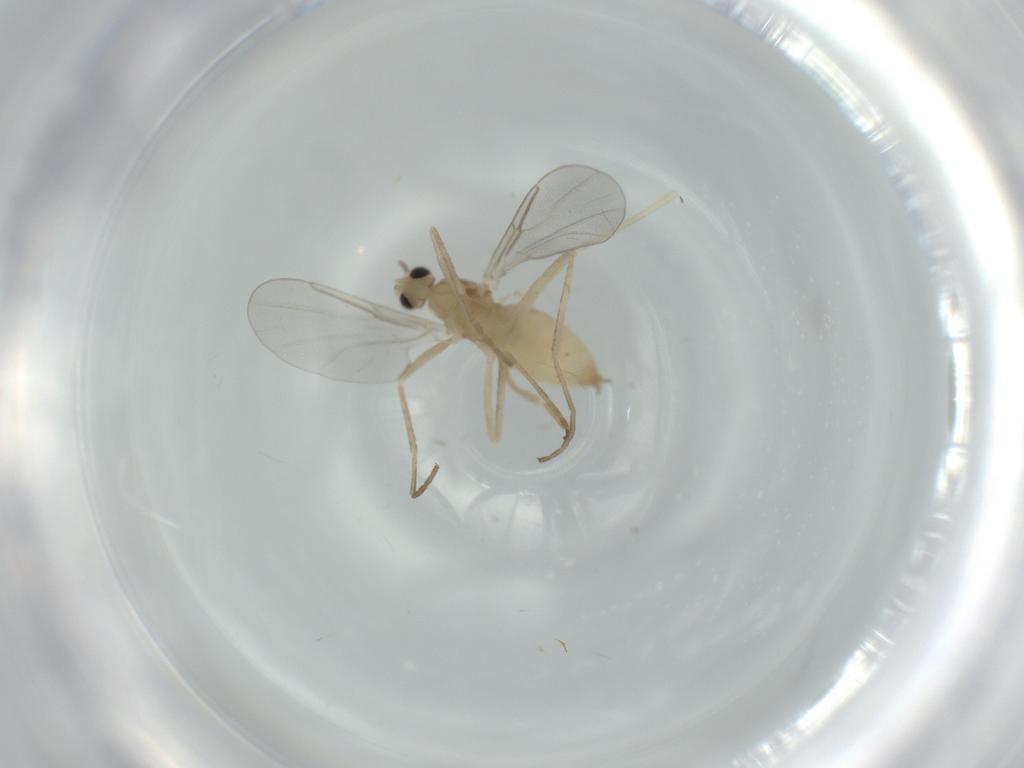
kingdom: Animalia
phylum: Arthropoda
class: Insecta
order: Diptera
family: Cecidomyiidae
